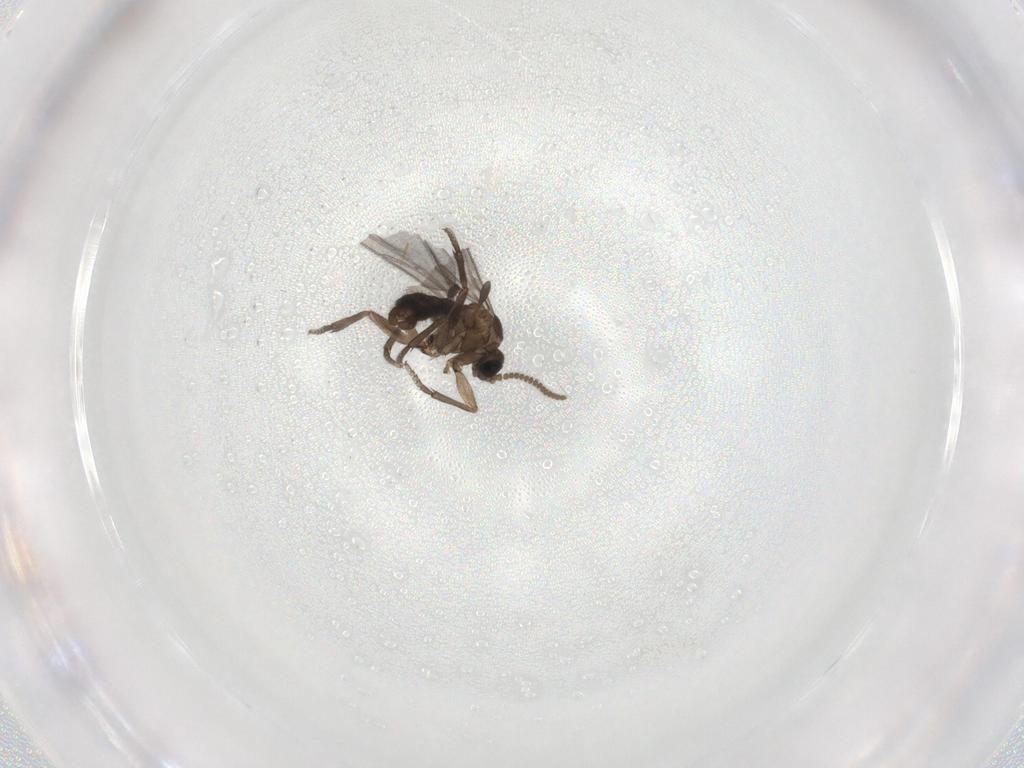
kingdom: Animalia
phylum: Arthropoda
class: Insecta
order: Diptera
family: Sciaridae
